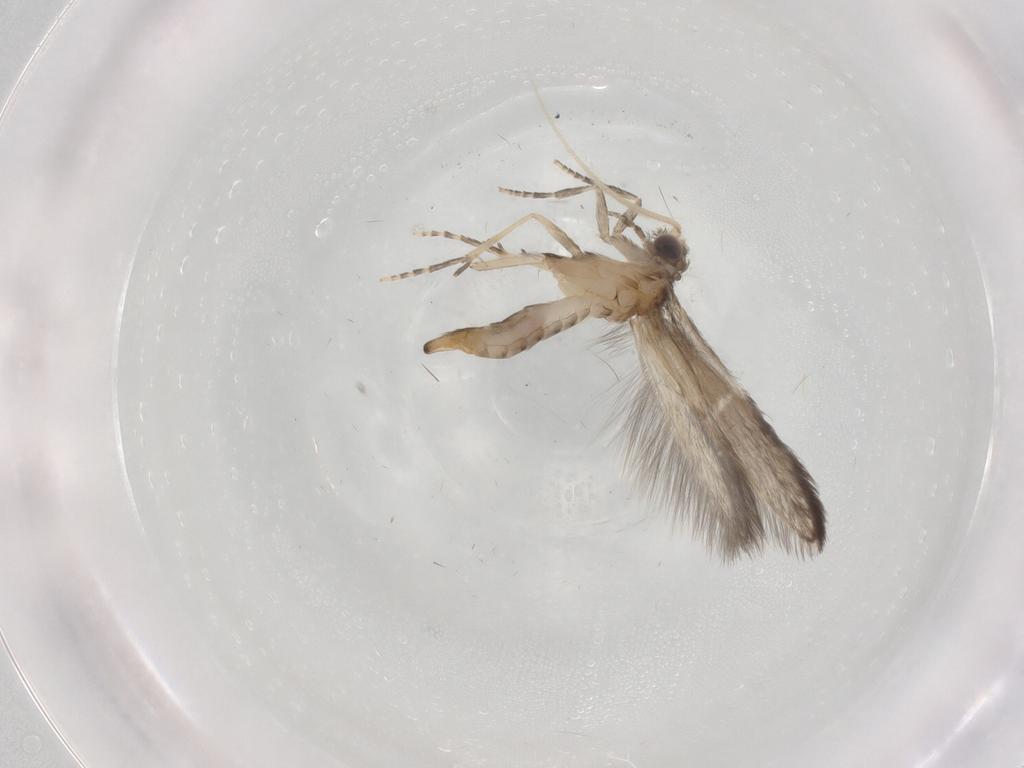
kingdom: Animalia
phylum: Arthropoda
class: Insecta
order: Trichoptera
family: Hydroptilidae
